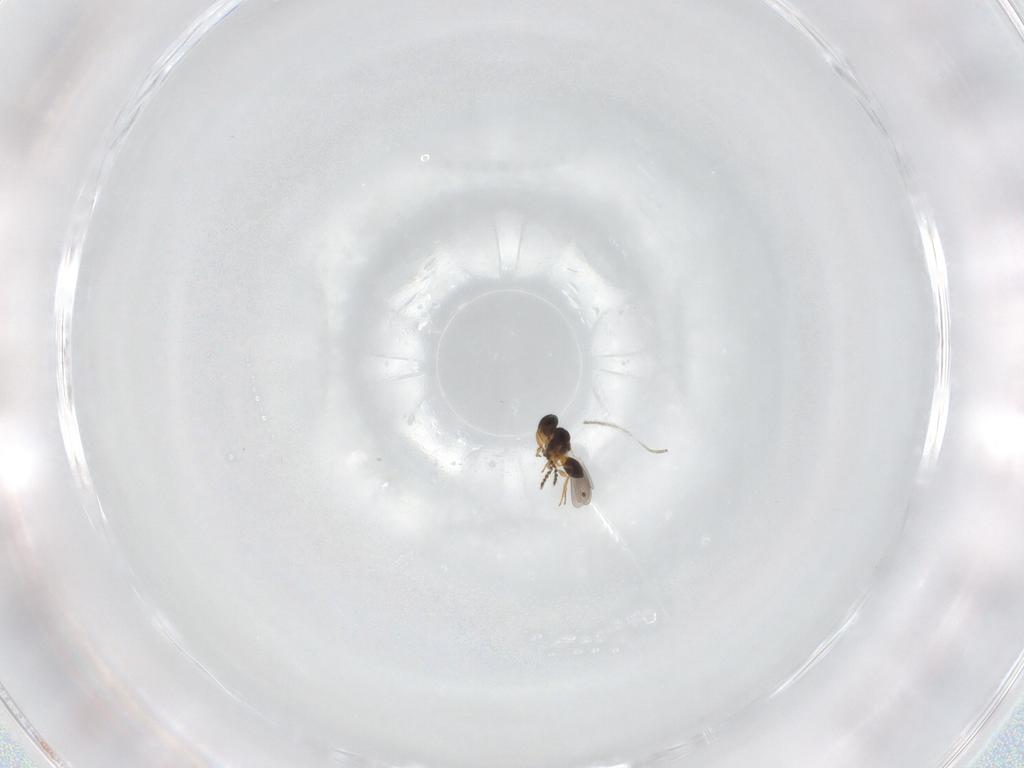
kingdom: Animalia
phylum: Arthropoda
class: Insecta
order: Hymenoptera
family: Platygastridae
